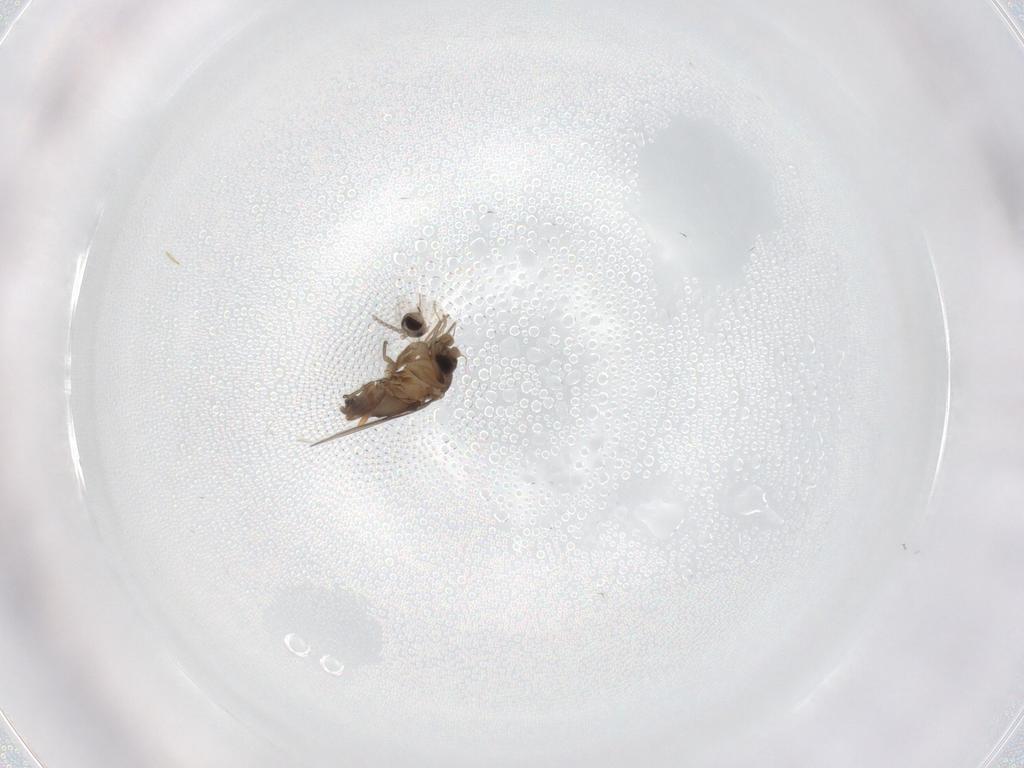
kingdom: Animalia
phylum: Arthropoda
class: Insecta
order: Diptera
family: Phoridae
